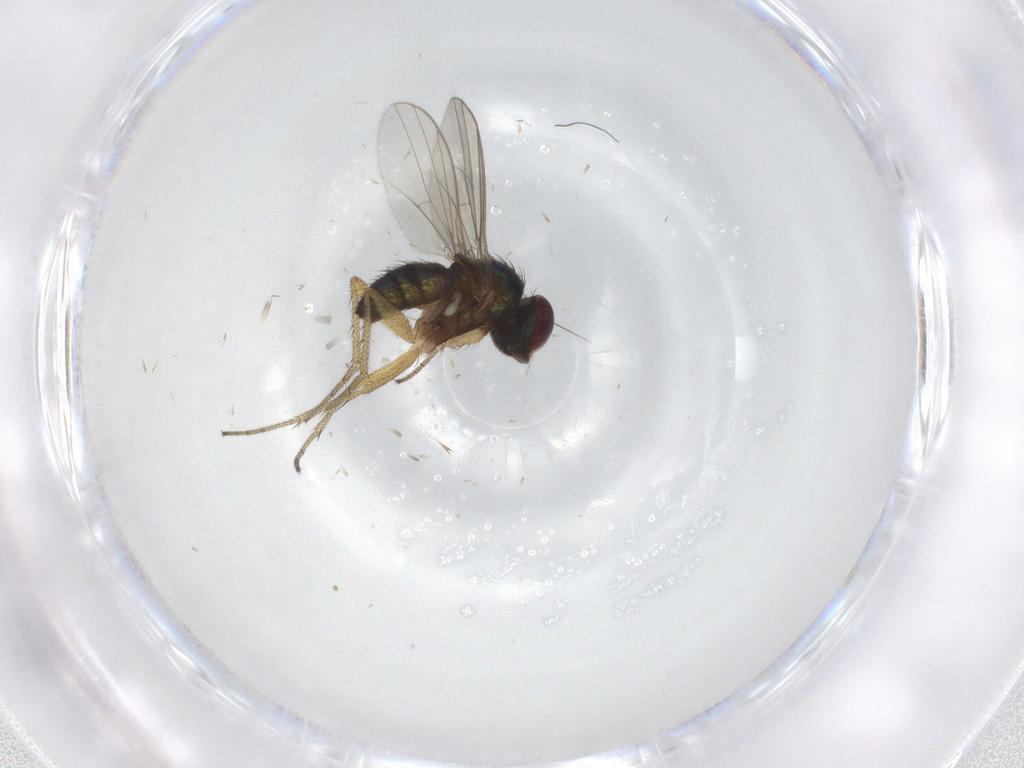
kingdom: Animalia
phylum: Arthropoda
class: Insecta
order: Diptera
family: Dolichopodidae
